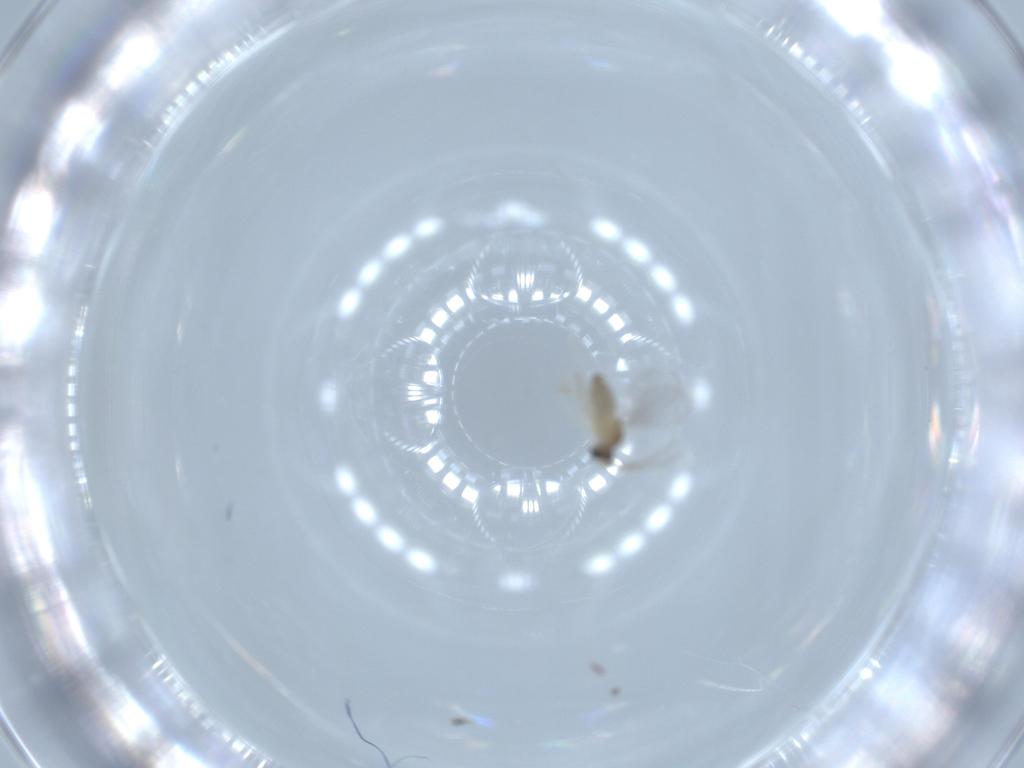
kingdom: Animalia
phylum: Arthropoda
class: Insecta
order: Diptera
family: Cecidomyiidae
